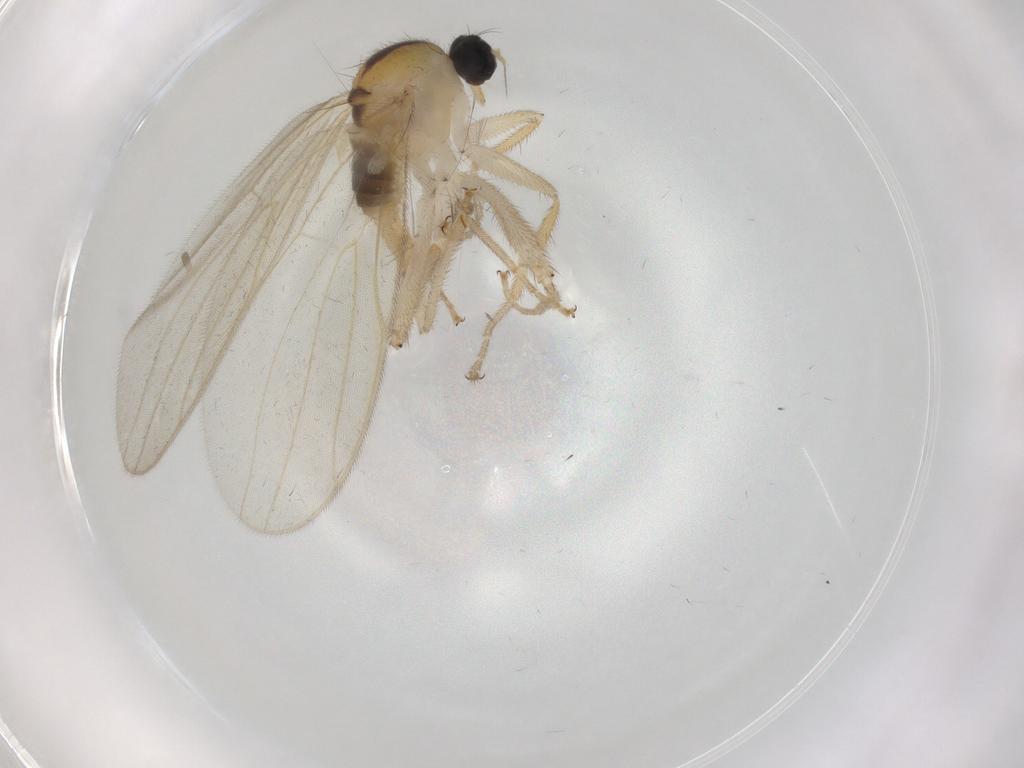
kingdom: Animalia
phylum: Arthropoda
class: Insecta
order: Diptera
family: Hybotidae
